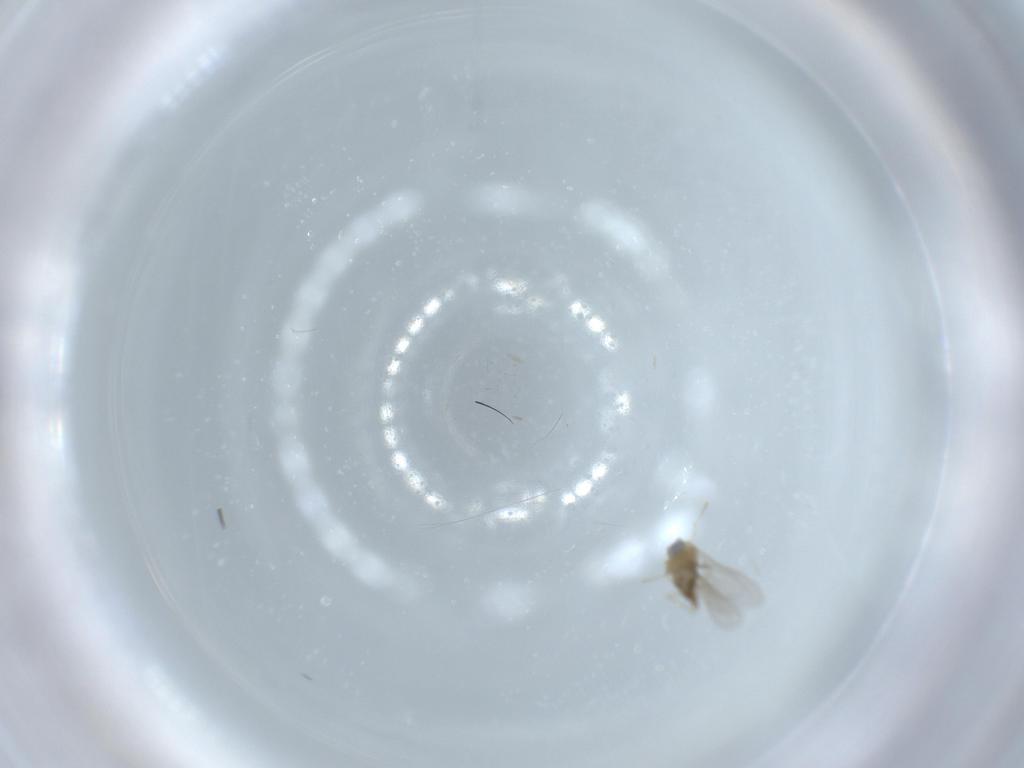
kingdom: Animalia
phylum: Arthropoda
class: Insecta
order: Diptera
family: Cecidomyiidae
